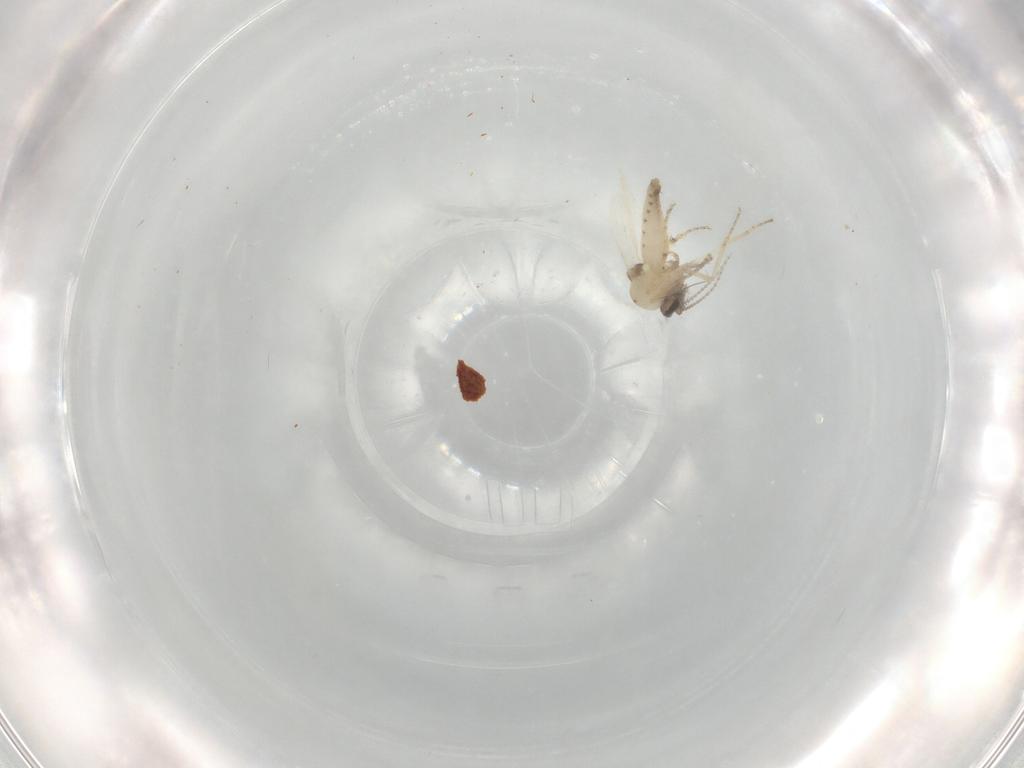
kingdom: Animalia
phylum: Arthropoda
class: Insecta
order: Diptera
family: Ceratopogonidae
